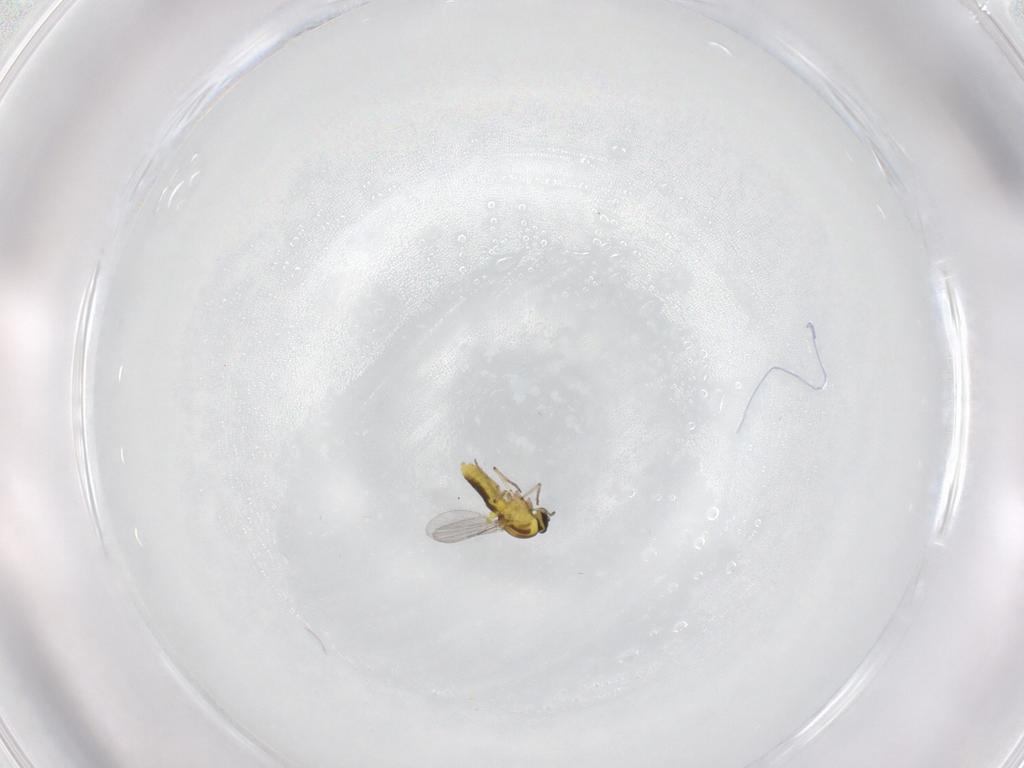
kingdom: Animalia
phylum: Arthropoda
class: Insecta
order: Diptera
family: Ceratopogonidae
